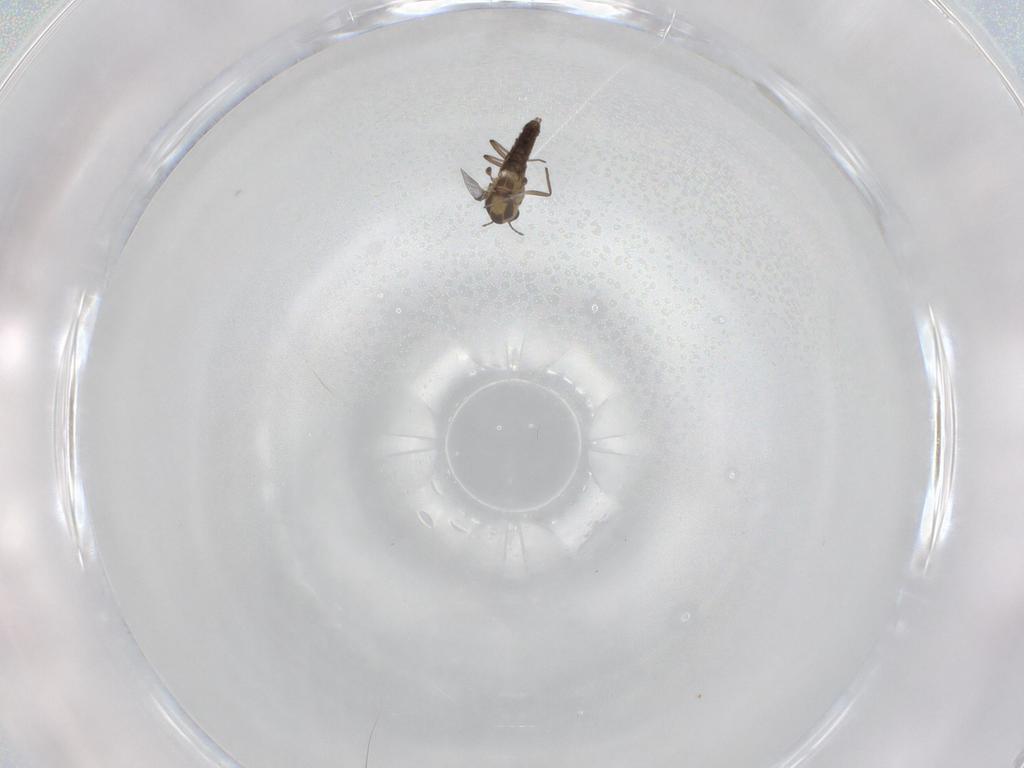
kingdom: Animalia
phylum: Arthropoda
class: Insecta
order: Diptera
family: Chironomidae
